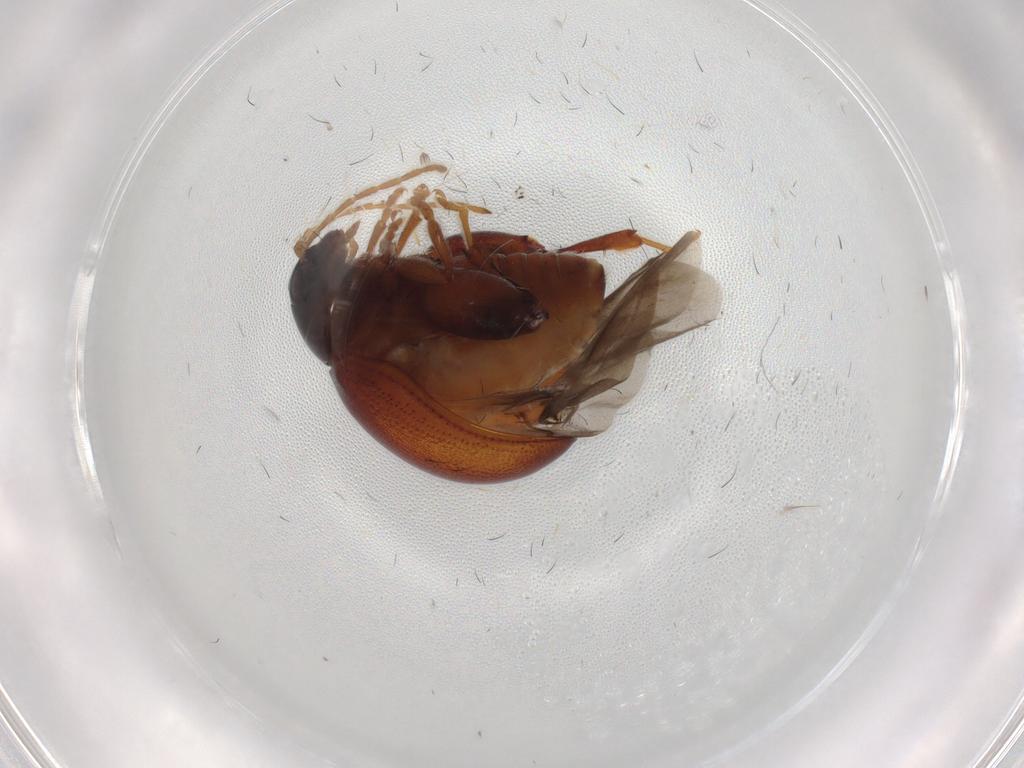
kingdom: Animalia
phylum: Arthropoda
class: Insecta
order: Coleoptera
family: Chrysomelidae
